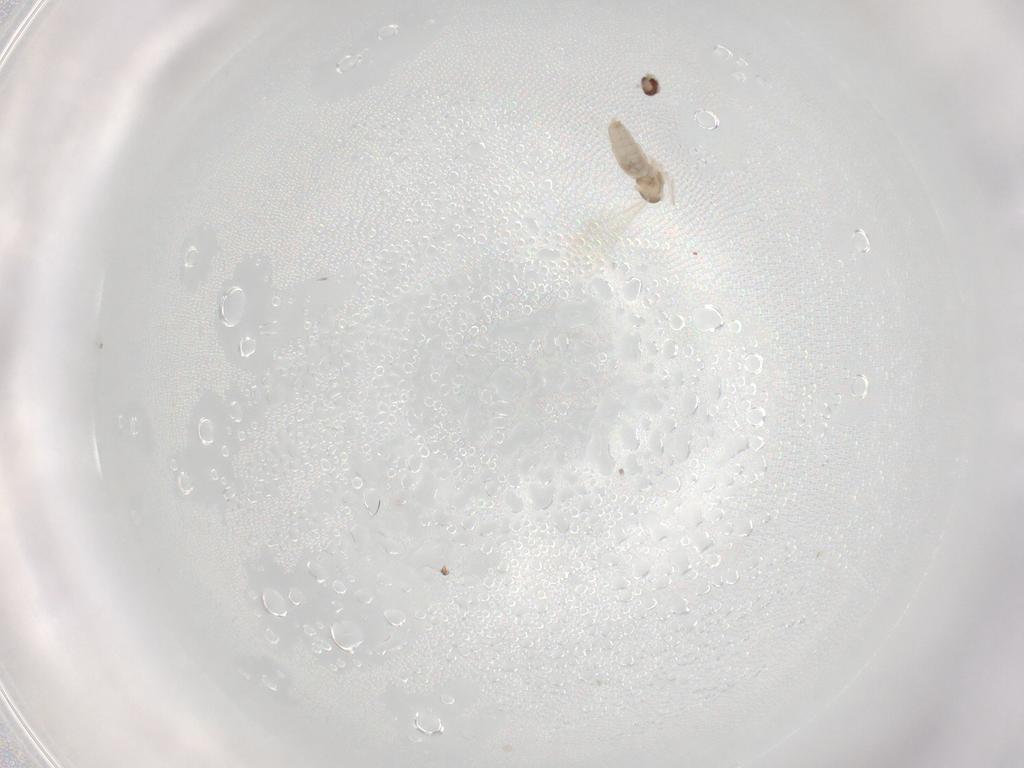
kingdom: Animalia
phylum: Arthropoda
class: Insecta
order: Diptera
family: Cecidomyiidae
